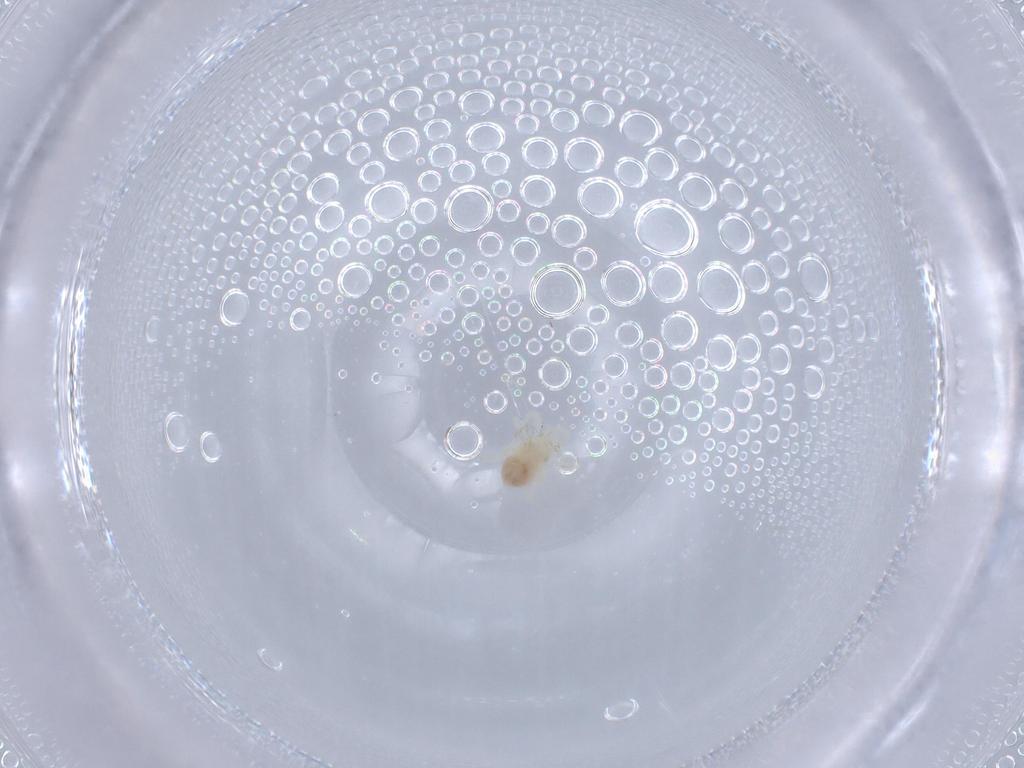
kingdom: Animalia
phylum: Arthropoda
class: Arachnida
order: Trombidiformes
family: Anystidae
